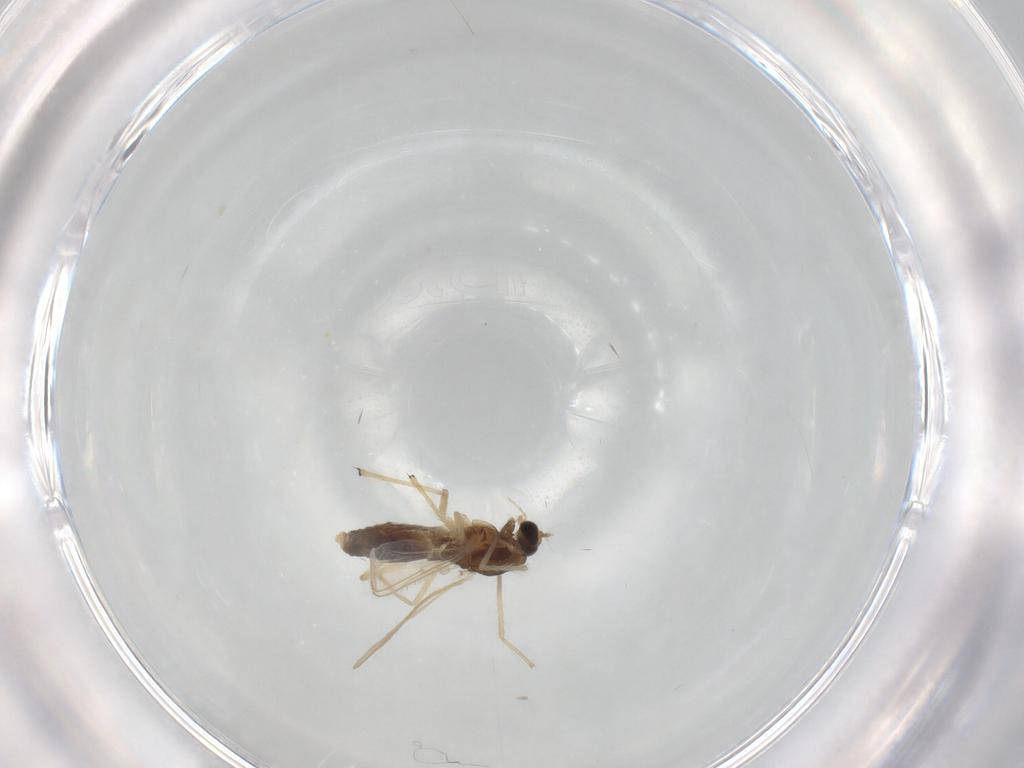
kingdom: Animalia
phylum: Arthropoda
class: Insecta
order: Diptera
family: Chironomidae
